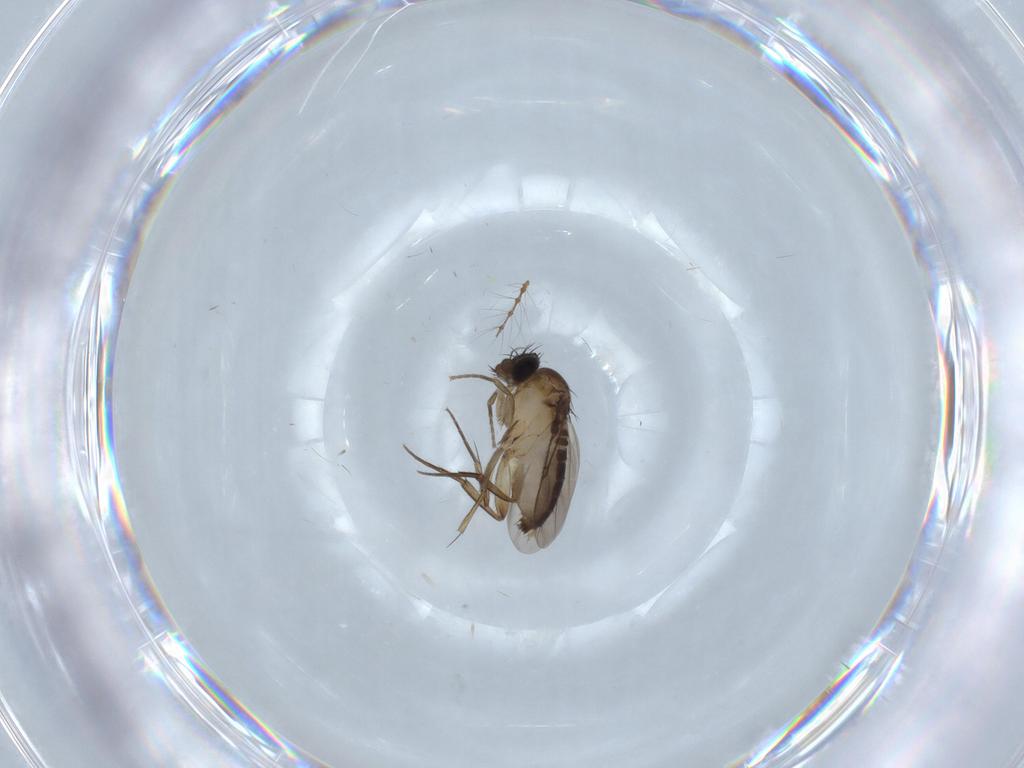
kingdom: Animalia
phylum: Arthropoda
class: Insecta
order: Diptera
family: Phoridae
